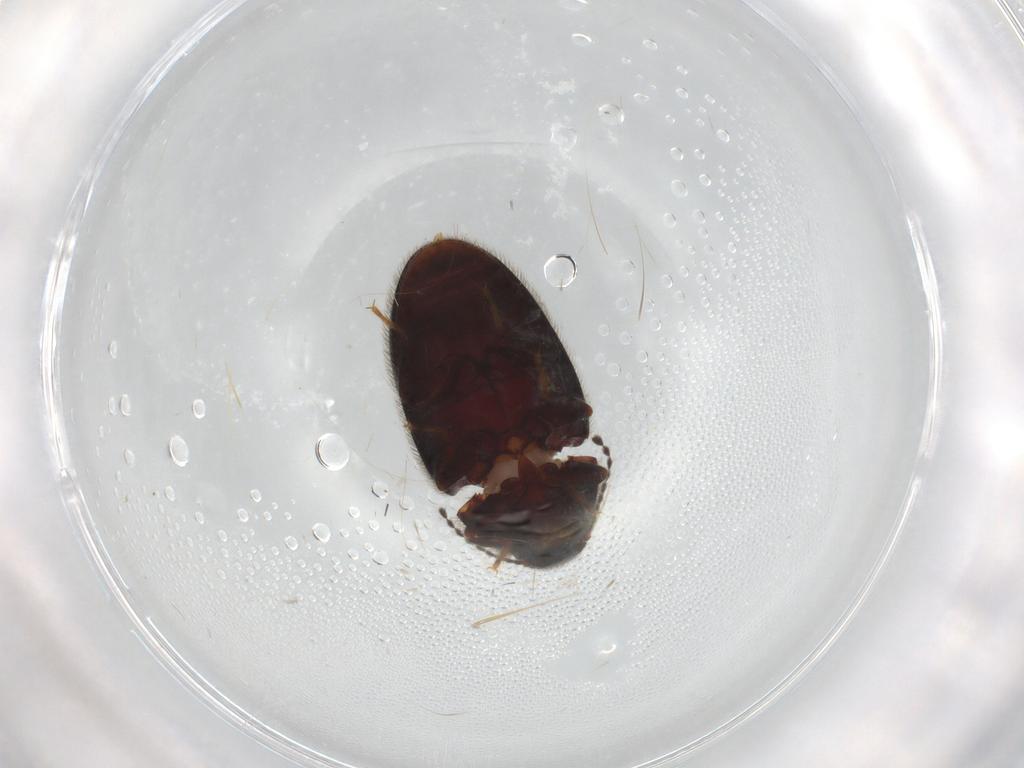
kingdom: Animalia
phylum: Arthropoda
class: Insecta
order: Coleoptera
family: Limnichidae
